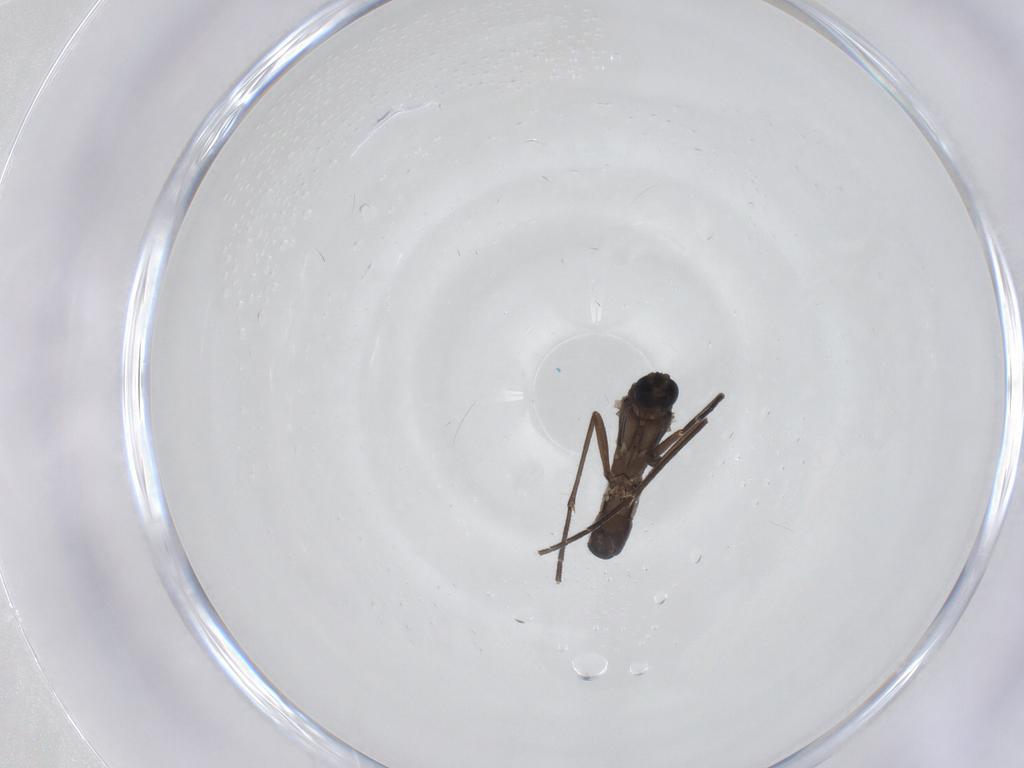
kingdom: Animalia
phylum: Arthropoda
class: Insecta
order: Diptera
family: Sciaridae
